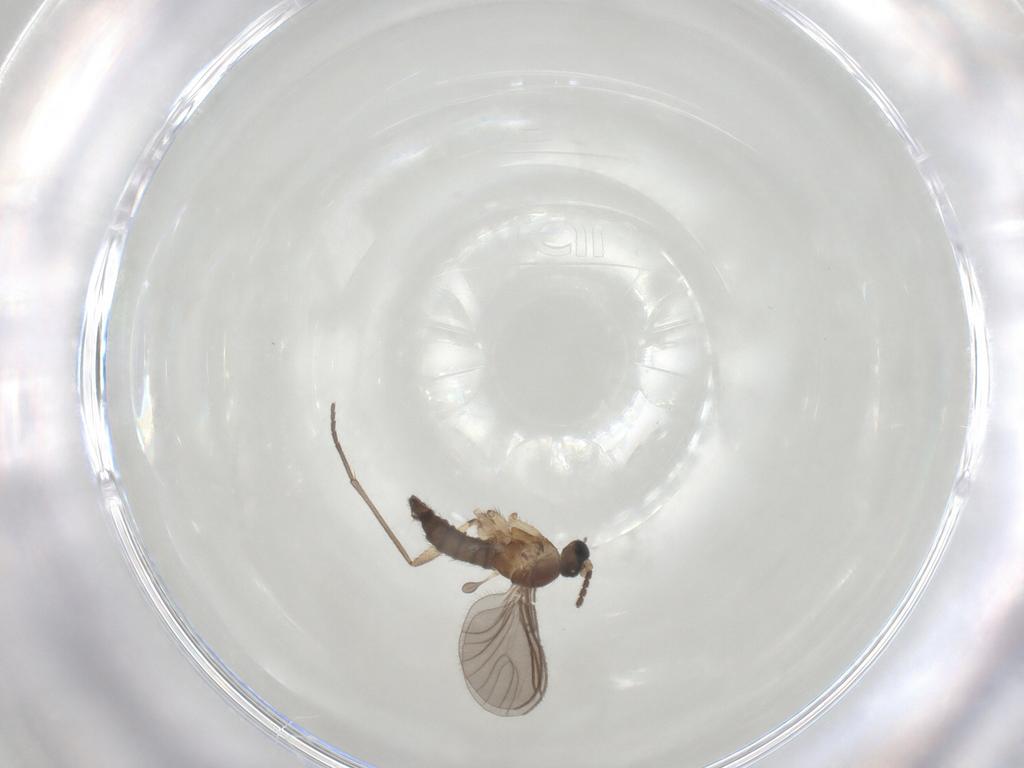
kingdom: Animalia
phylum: Arthropoda
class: Insecta
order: Diptera
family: Sciaridae
